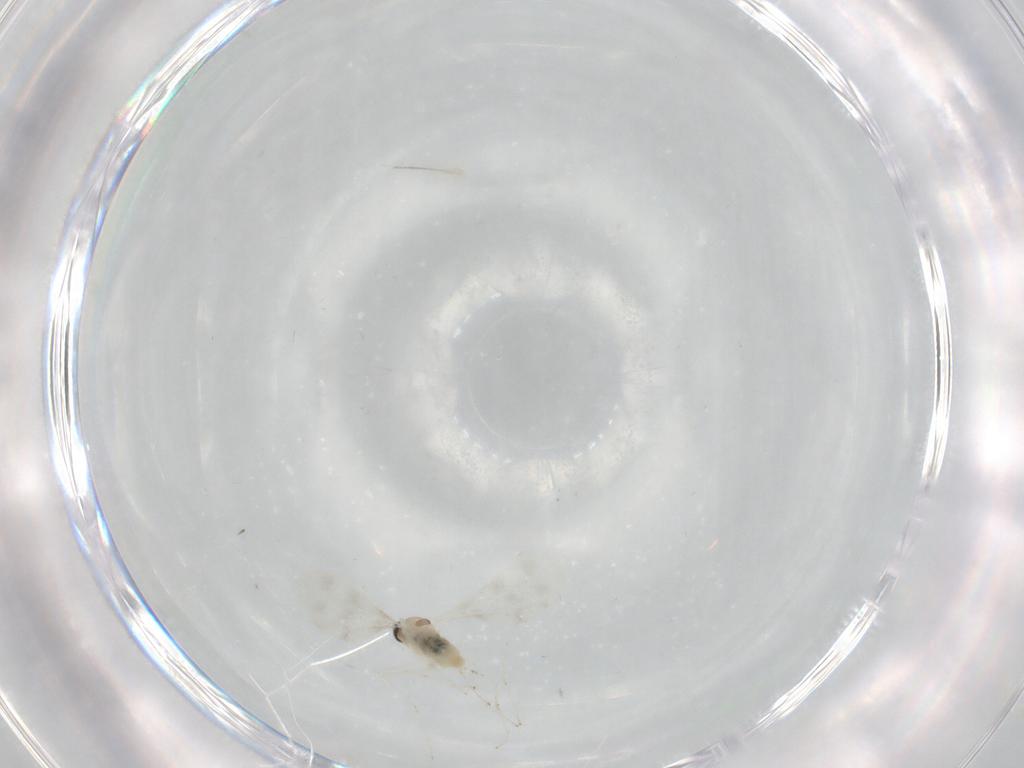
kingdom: Animalia
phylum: Arthropoda
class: Insecta
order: Diptera
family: Cecidomyiidae
